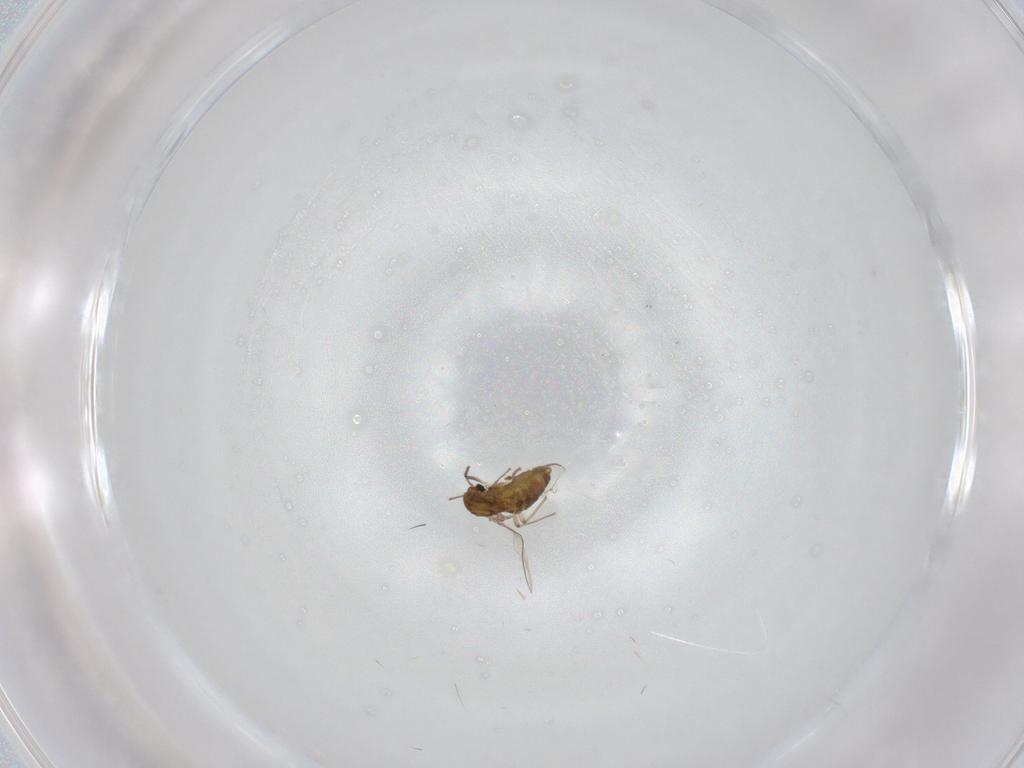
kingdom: Animalia
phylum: Arthropoda
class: Insecta
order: Diptera
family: Chironomidae
